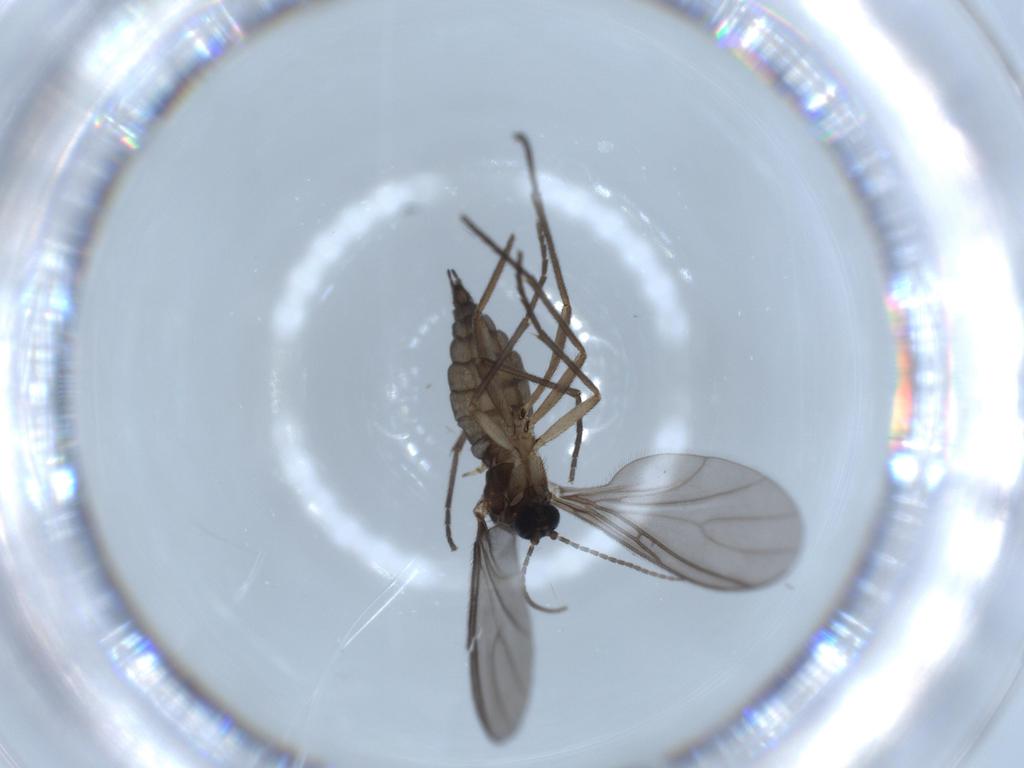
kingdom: Animalia
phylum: Arthropoda
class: Insecta
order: Diptera
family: Sciaridae
